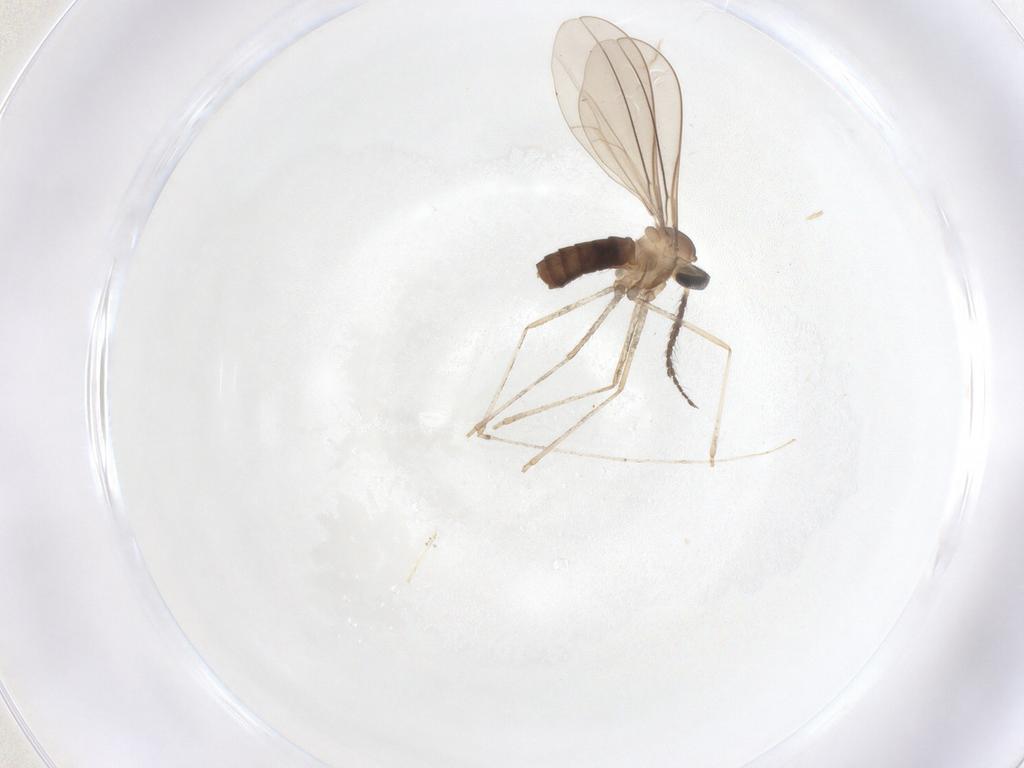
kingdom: Animalia
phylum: Arthropoda
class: Insecta
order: Diptera
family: Cecidomyiidae
